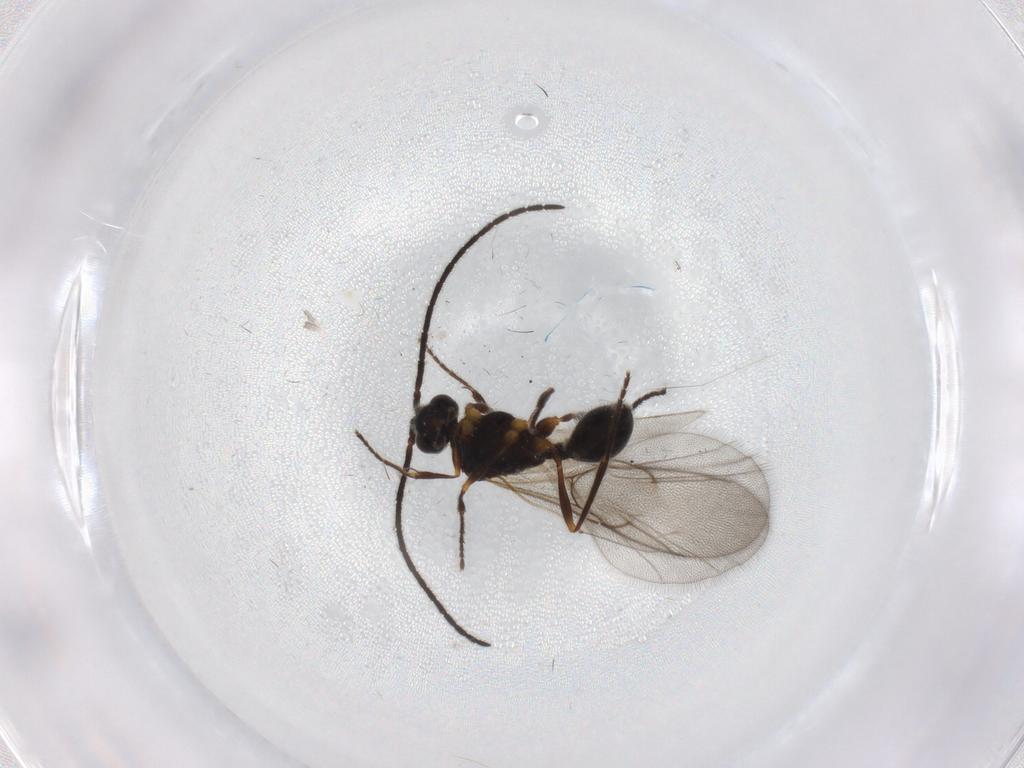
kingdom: Animalia
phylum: Arthropoda
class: Insecta
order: Hymenoptera
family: Diapriidae
